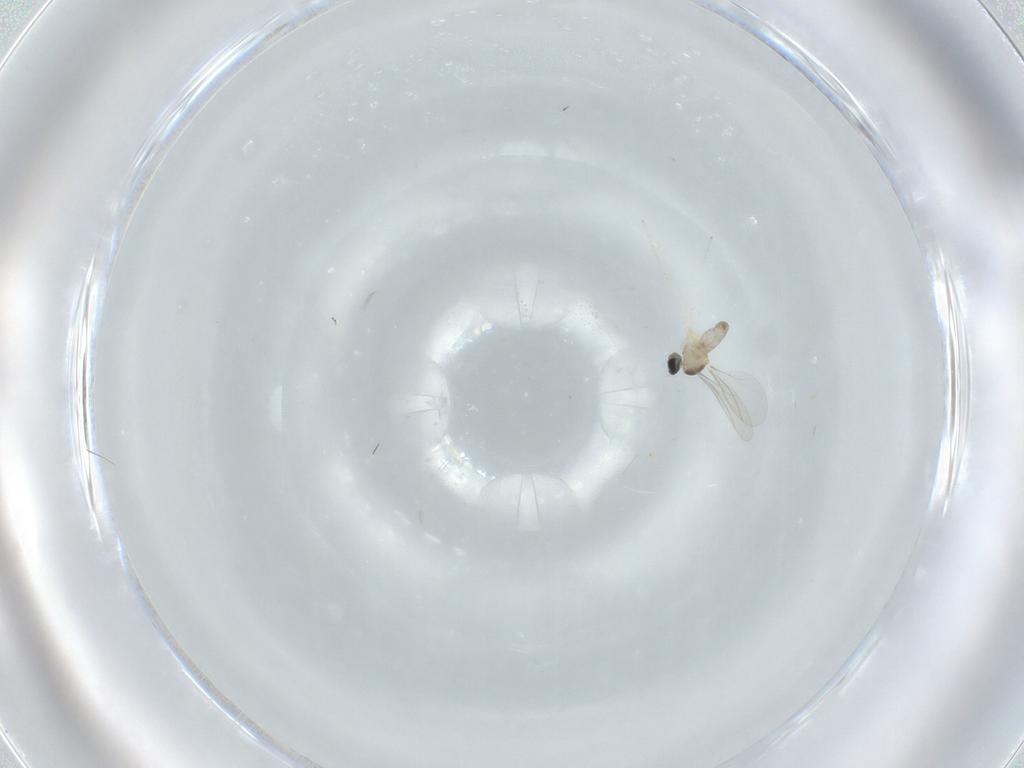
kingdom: Animalia
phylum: Arthropoda
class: Insecta
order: Diptera
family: Cecidomyiidae
